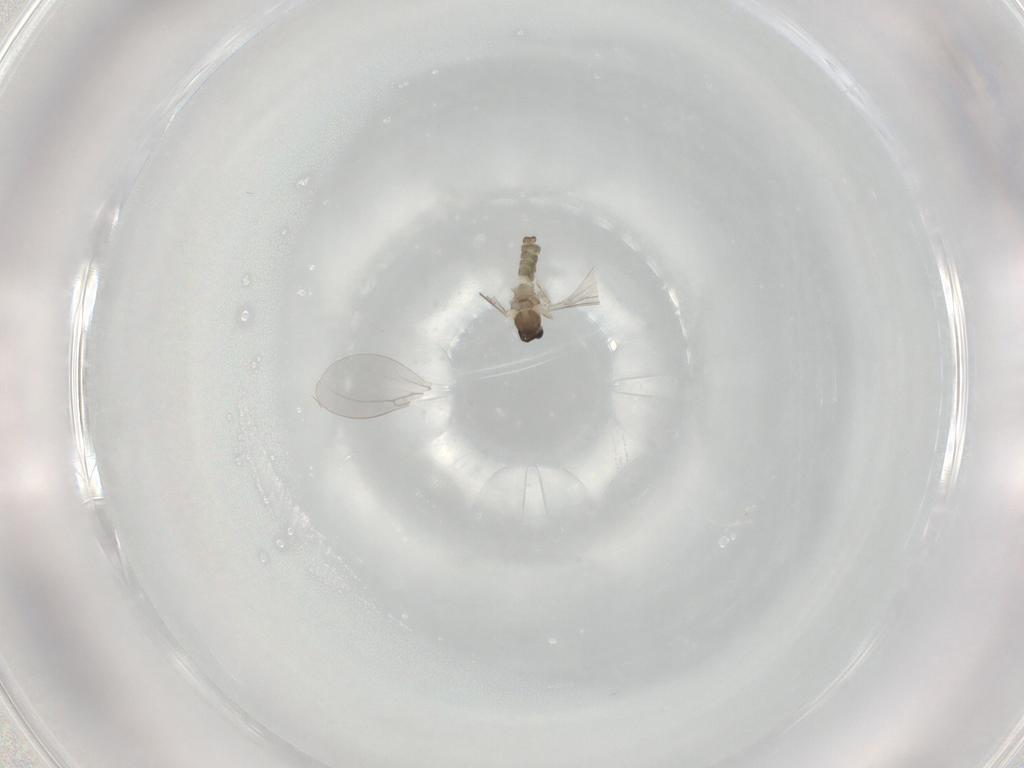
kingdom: Animalia
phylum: Arthropoda
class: Insecta
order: Diptera
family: Cecidomyiidae
